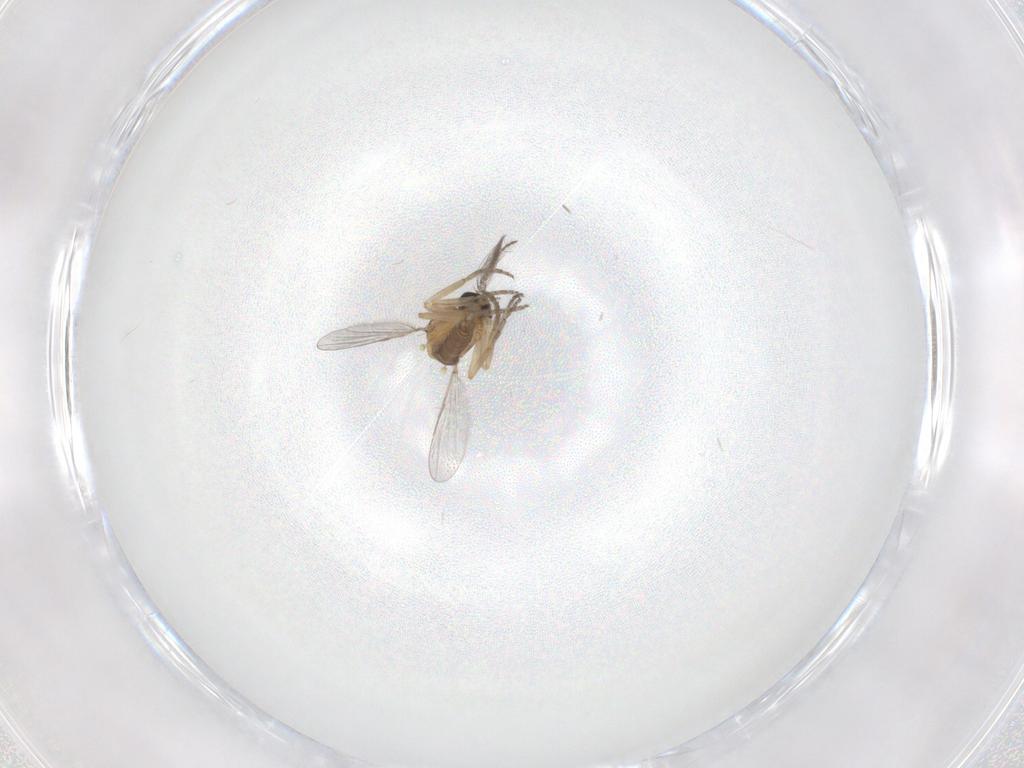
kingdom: Animalia
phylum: Arthropoda
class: Insecta
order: Diptera
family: Ceratopogonidae
